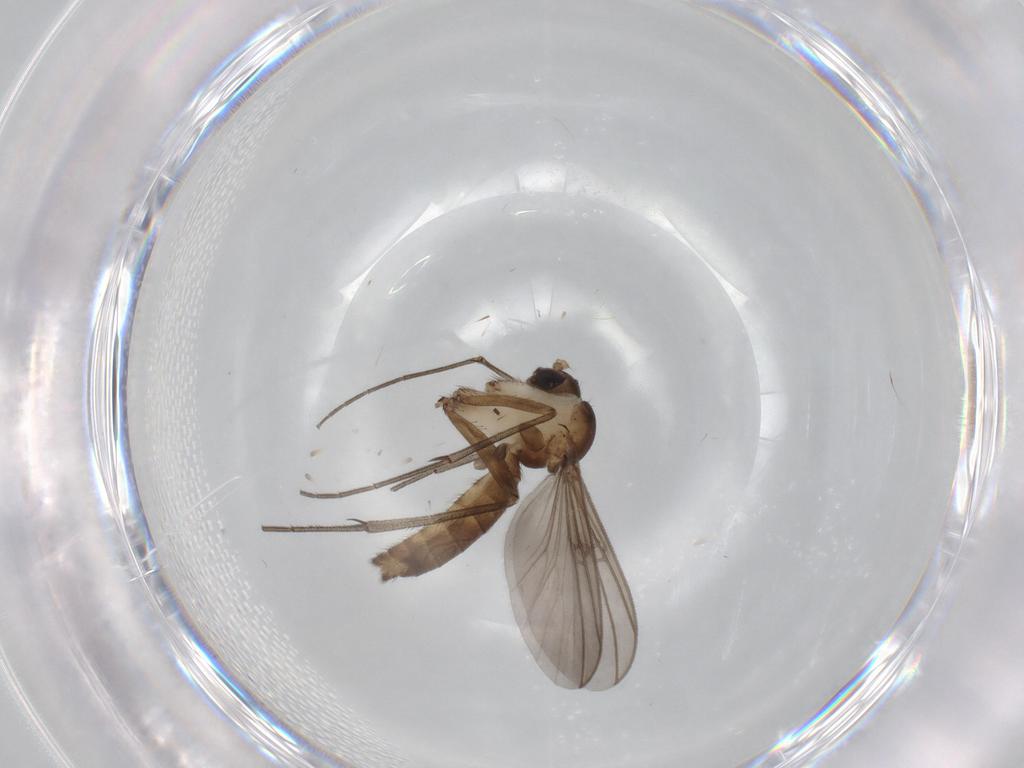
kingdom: Animalia
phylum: Arthropoda
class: Insecta
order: Diptera
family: Mycetophilidae
